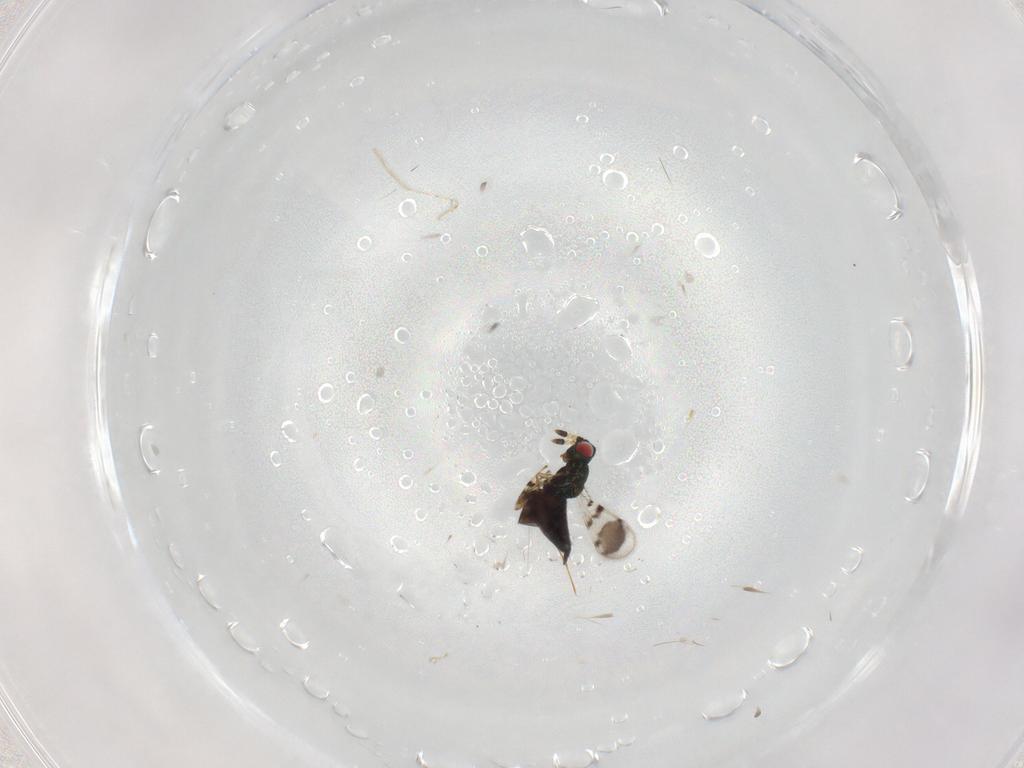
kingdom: Animalia
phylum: Arthropoda
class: Insecta
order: Hymenoptera
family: Eulophidae
